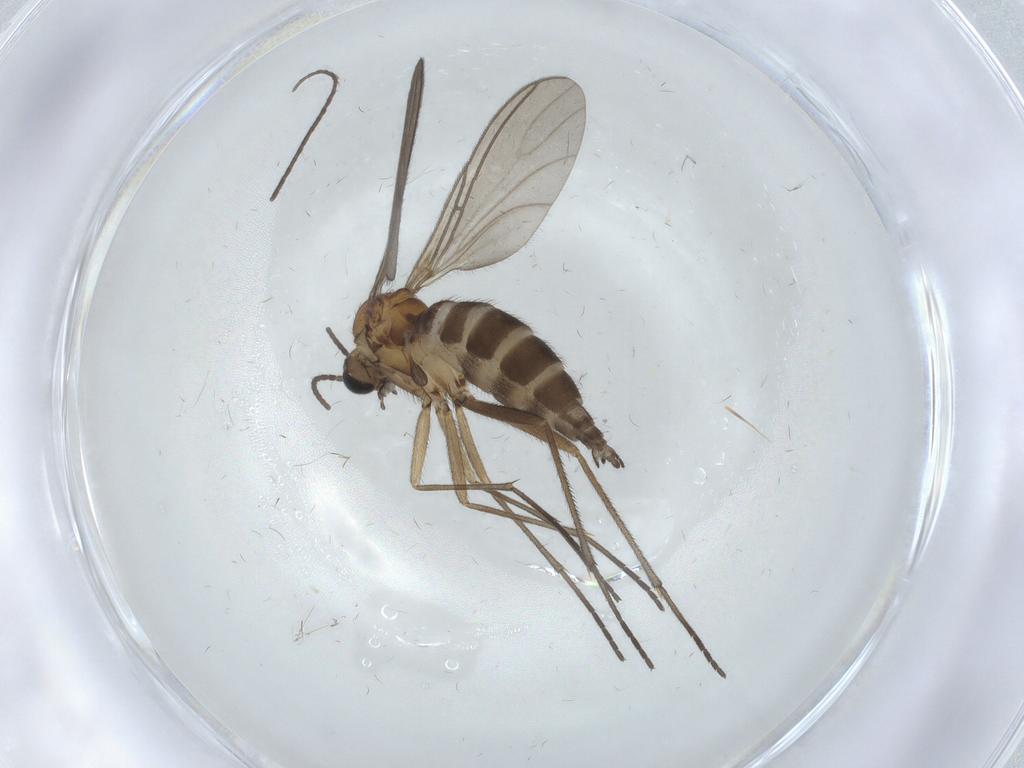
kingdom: Animalia
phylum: Arthropoda
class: Insecta
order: Diptera
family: Sciaridae
